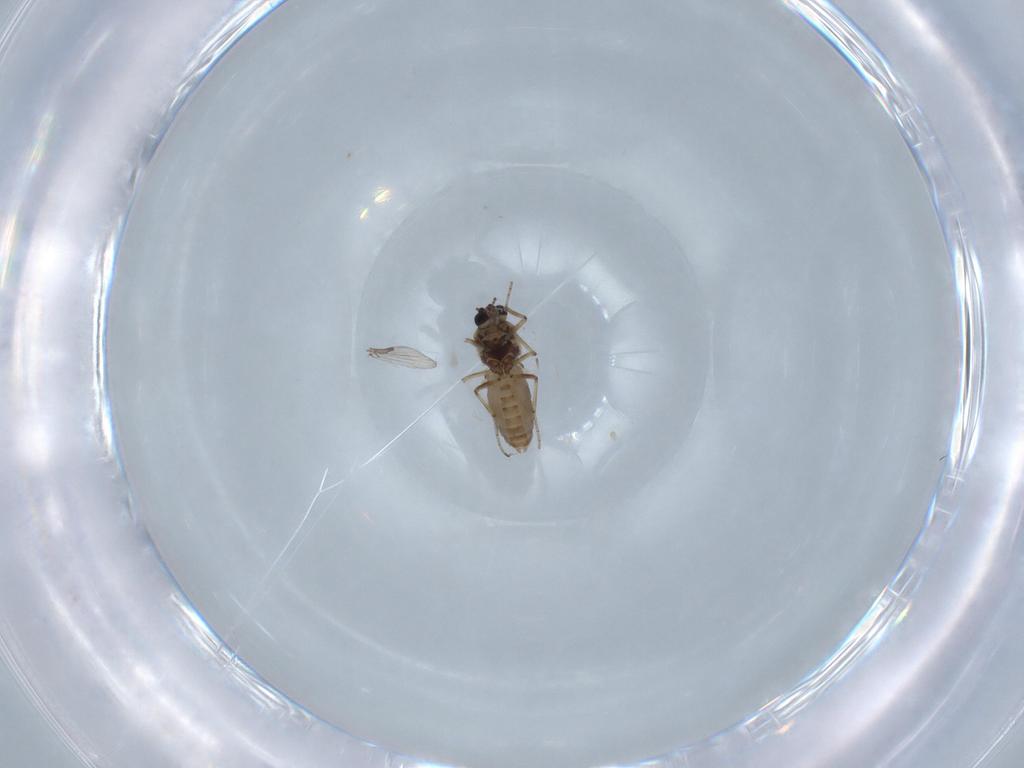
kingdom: Animalia
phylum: Arthropoda
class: Insecta
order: Diptera
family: Ceratopogonidae
